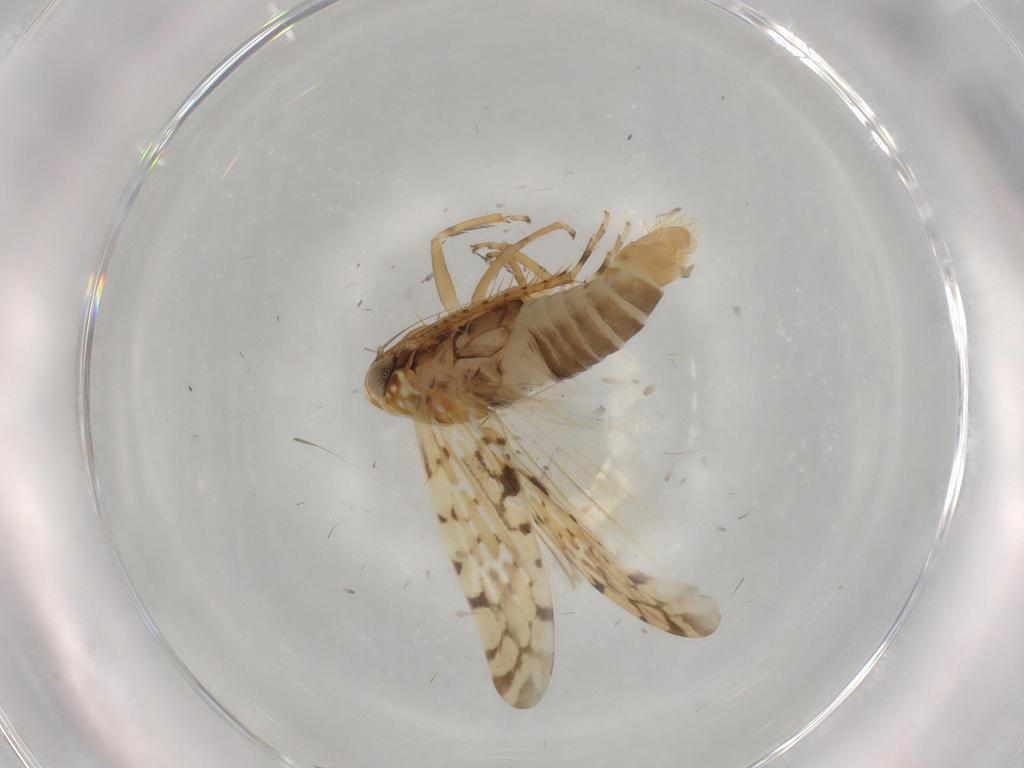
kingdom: Animalia
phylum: Arthropoda
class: Insecta
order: Hemiptera
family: Cicadellidae
